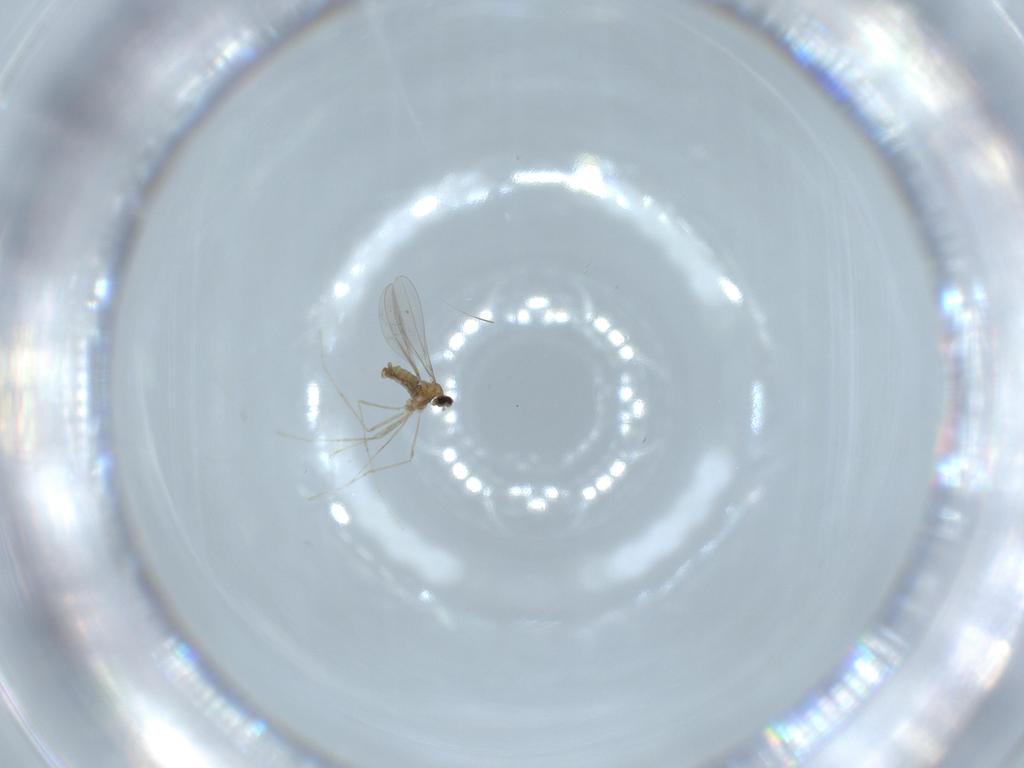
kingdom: Animalia
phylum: Arthropoda
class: Insecta
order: Diptera
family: Cecidomyiidae
